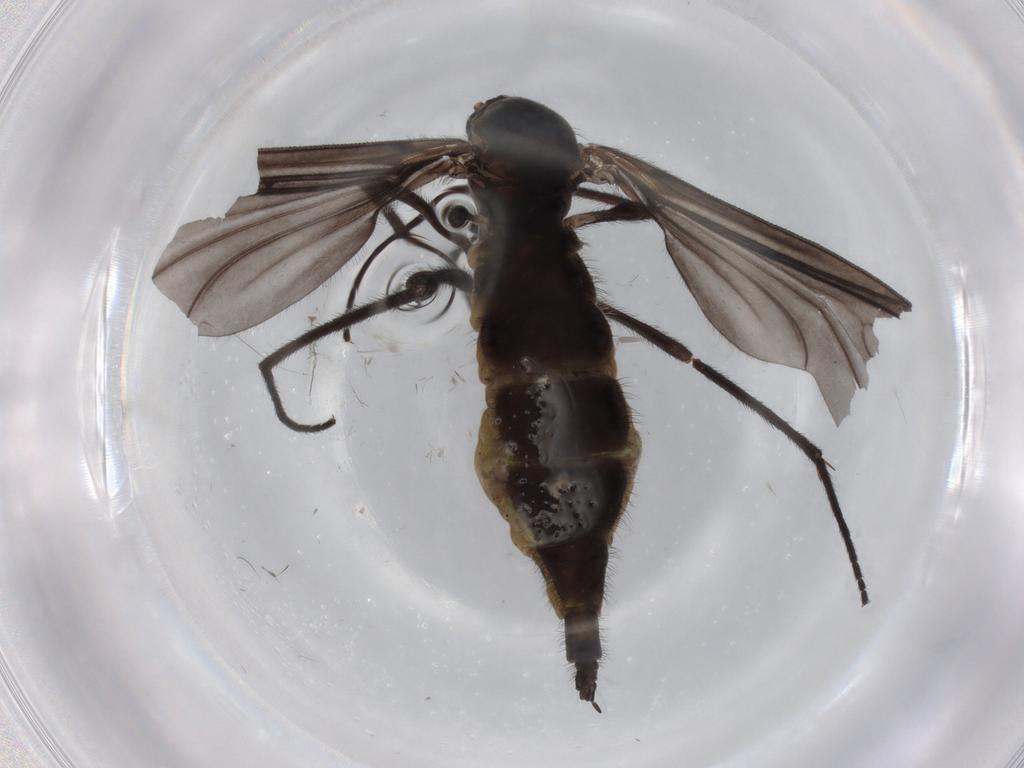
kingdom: Animalia
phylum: Arthropoda
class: Insecta
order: Diptera
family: Sciaridae
